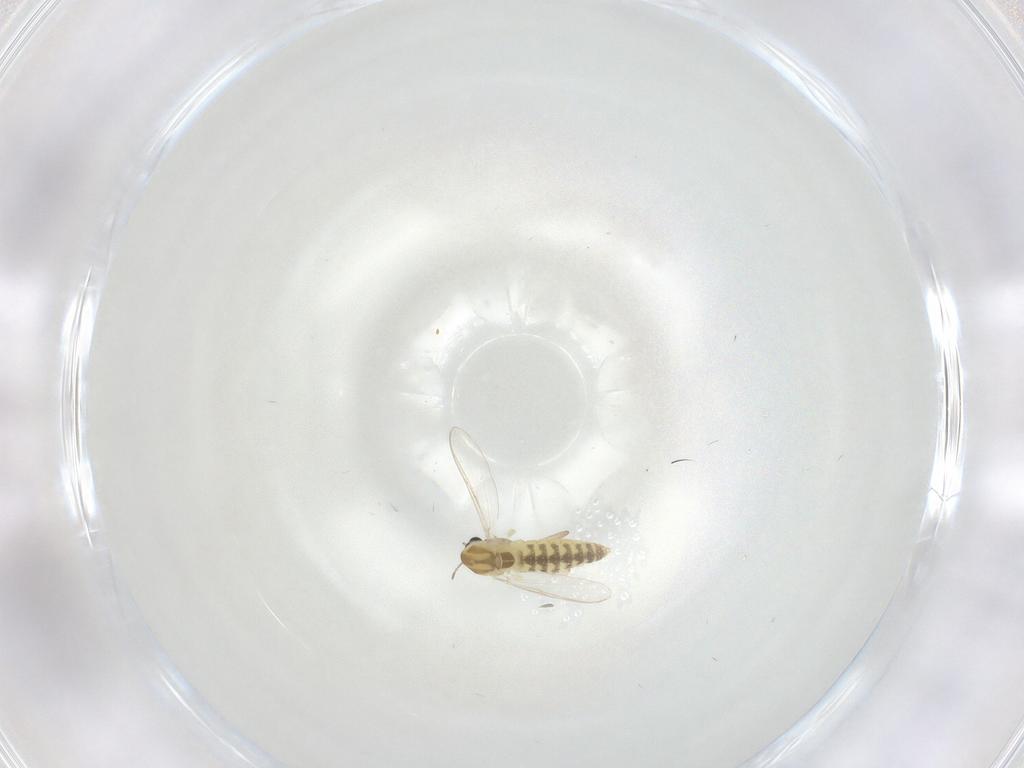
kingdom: Animalia
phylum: Arthropoda
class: Insecta
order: Diptera
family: Chironomidae
